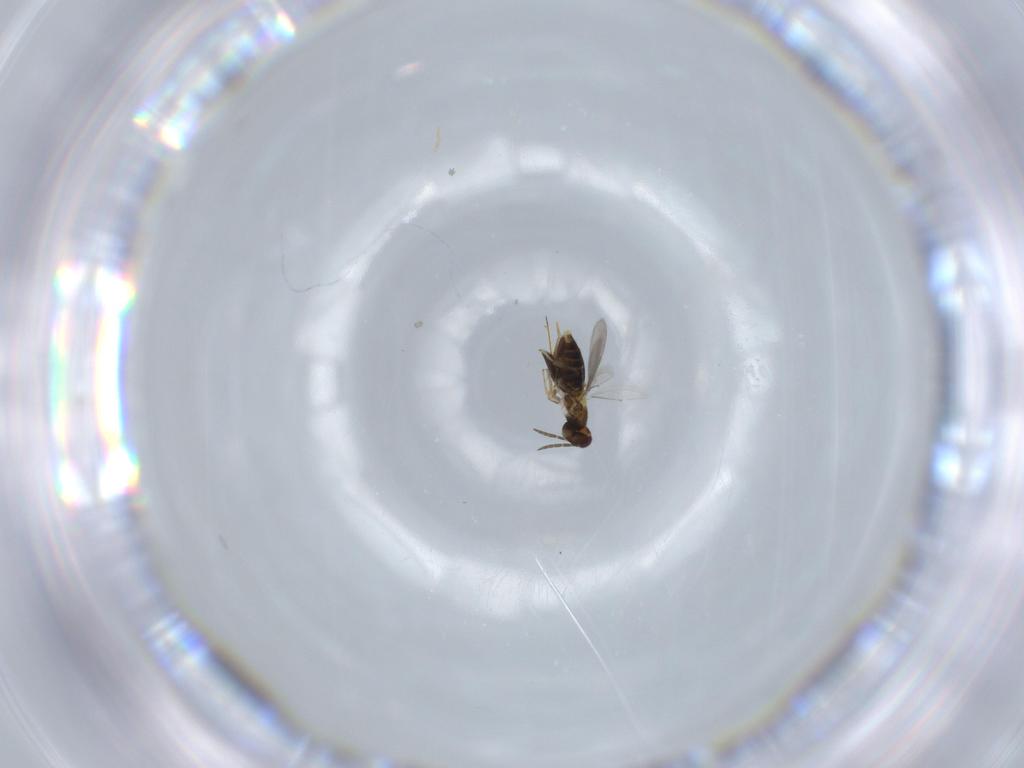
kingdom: Animalia
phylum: Arthropoda
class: Insecta
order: Hymenoptera
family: Aphelinidae
